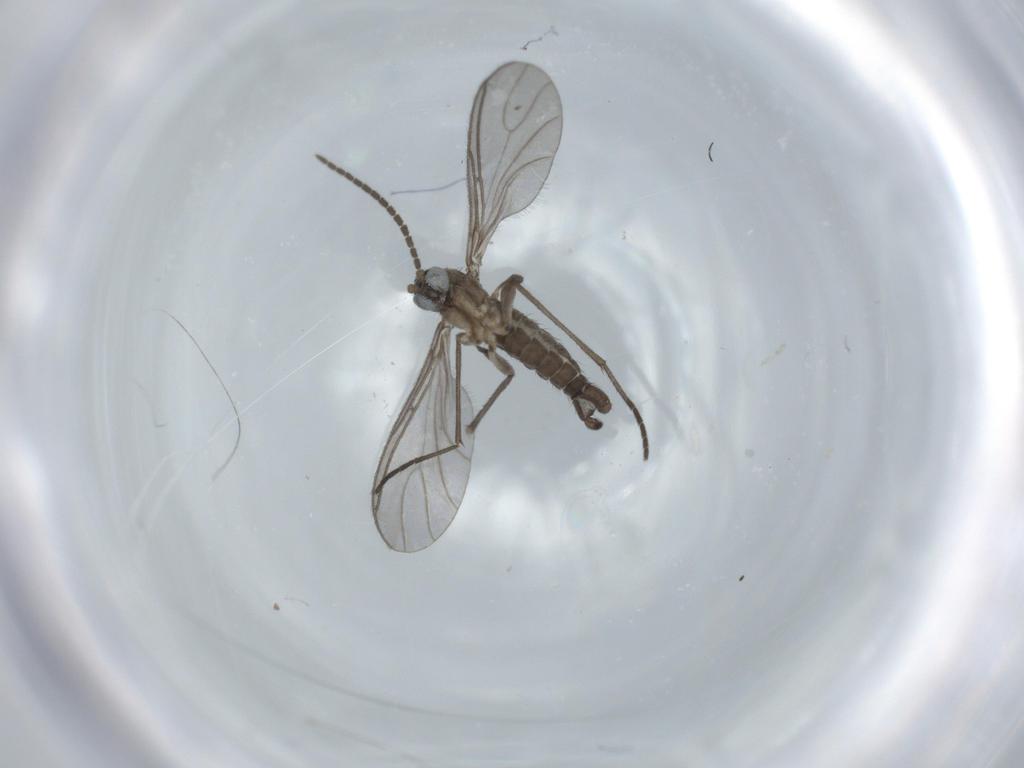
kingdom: Animalia
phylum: Arthropoda
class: Insecta
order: Diptera
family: Sciaridae
